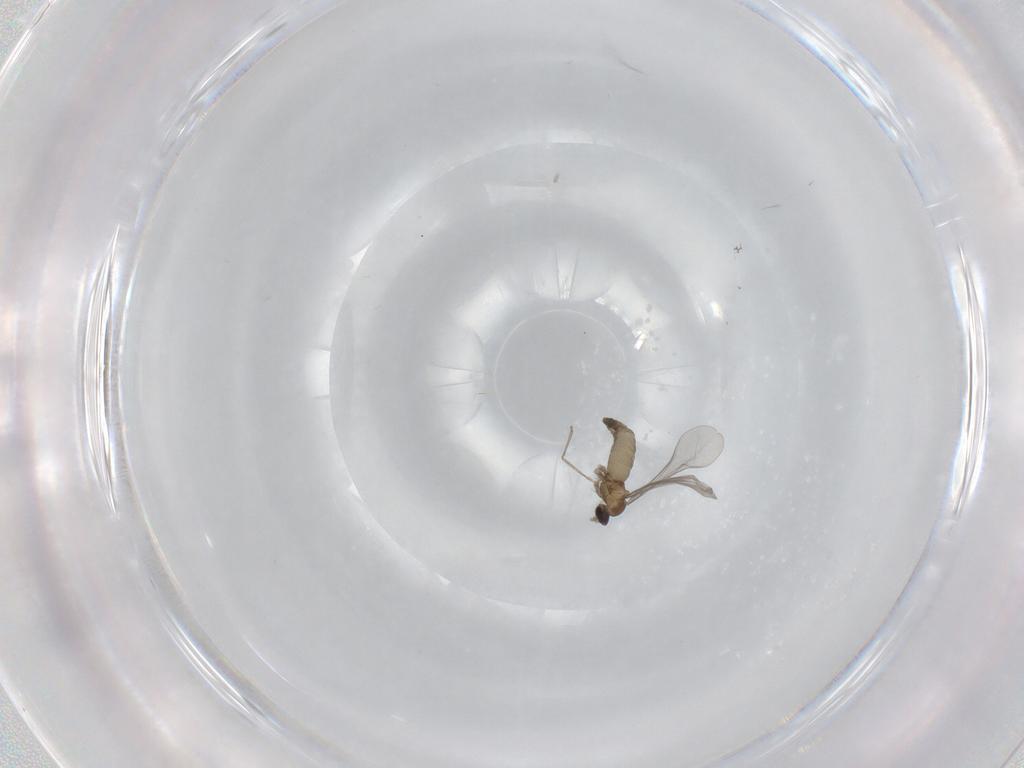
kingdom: Animalia
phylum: Arthropoda
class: Insecta
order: Diptera
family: Cecidomyiidae
